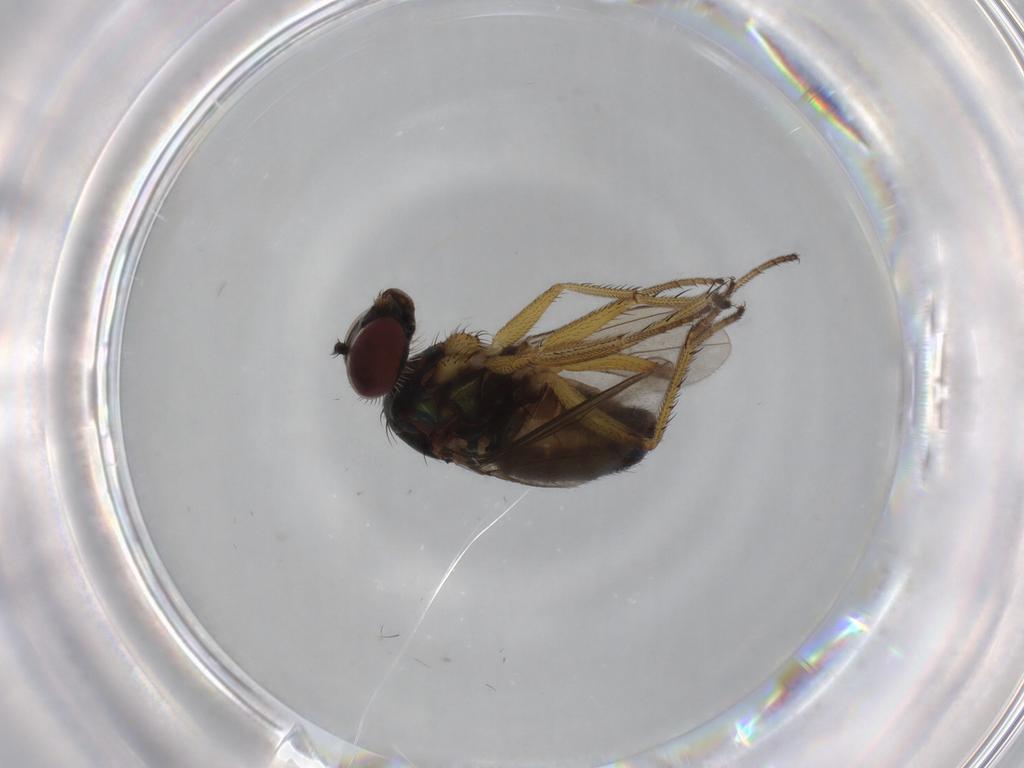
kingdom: Animalia
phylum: Arthropoda
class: Insecta
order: Diptera
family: Dolichopodidae
